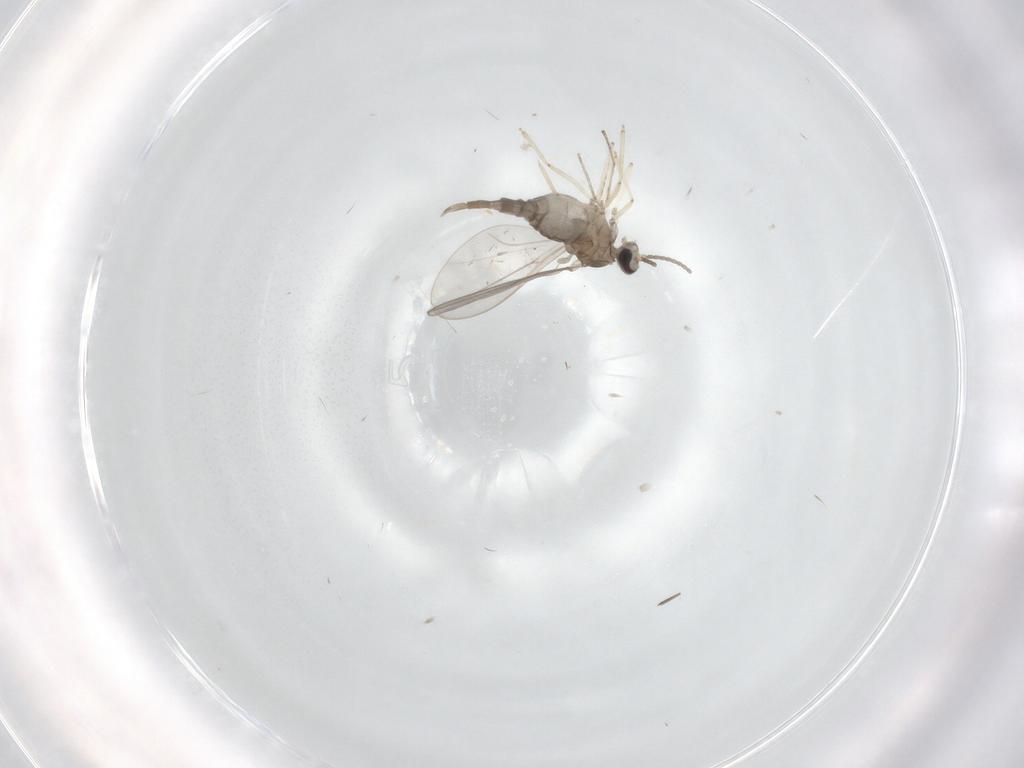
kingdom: Animalia
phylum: Arthropoda
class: Insecta
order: Diptera
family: Cecidomyiidae
